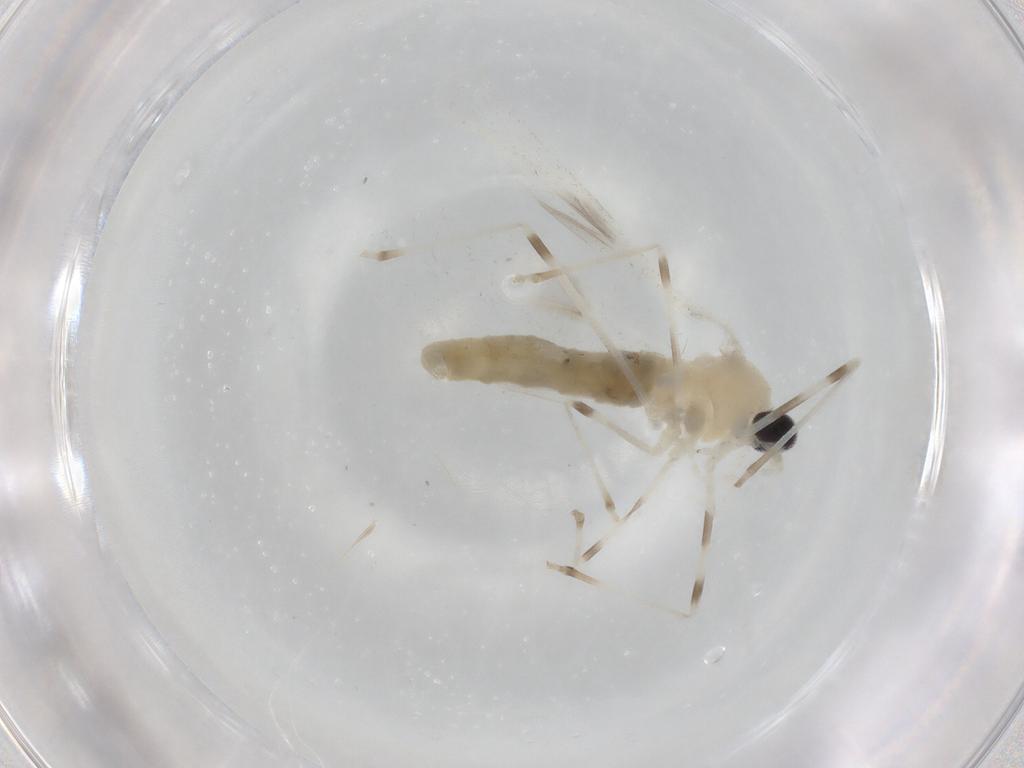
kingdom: Animalia
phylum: Arthropoda
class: Insecta
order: Diptera
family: Cecidomyiidae
